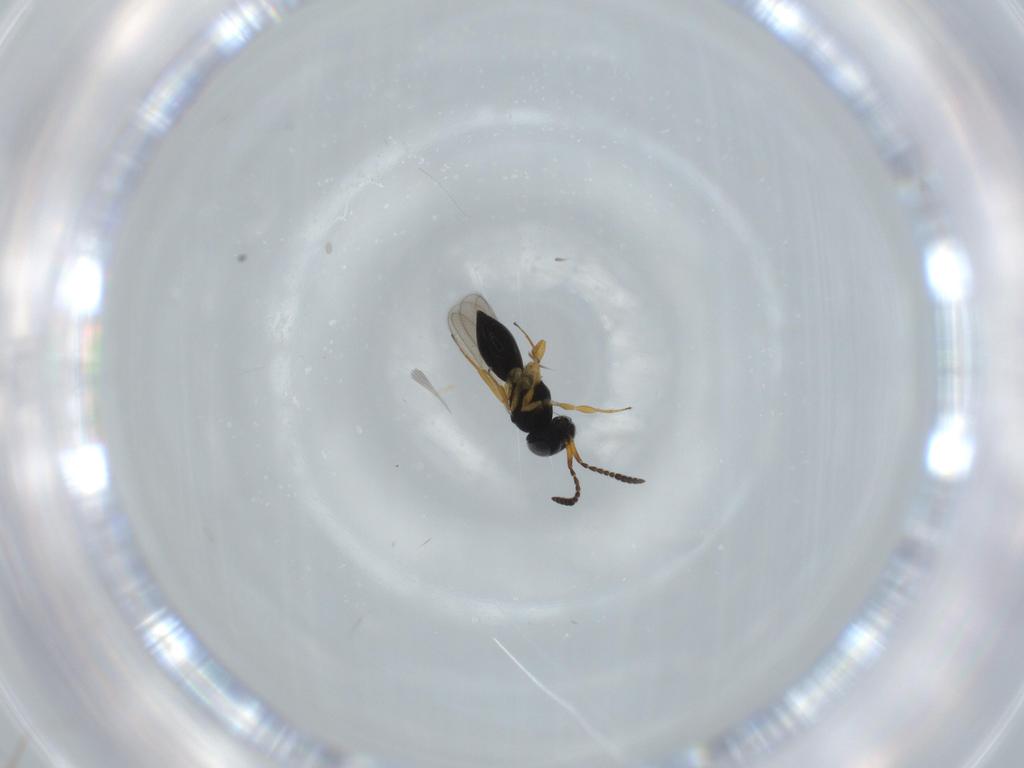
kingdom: Animalia
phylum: Arthropoda
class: Insecta
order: Hymenoptera
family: Scelionidae
